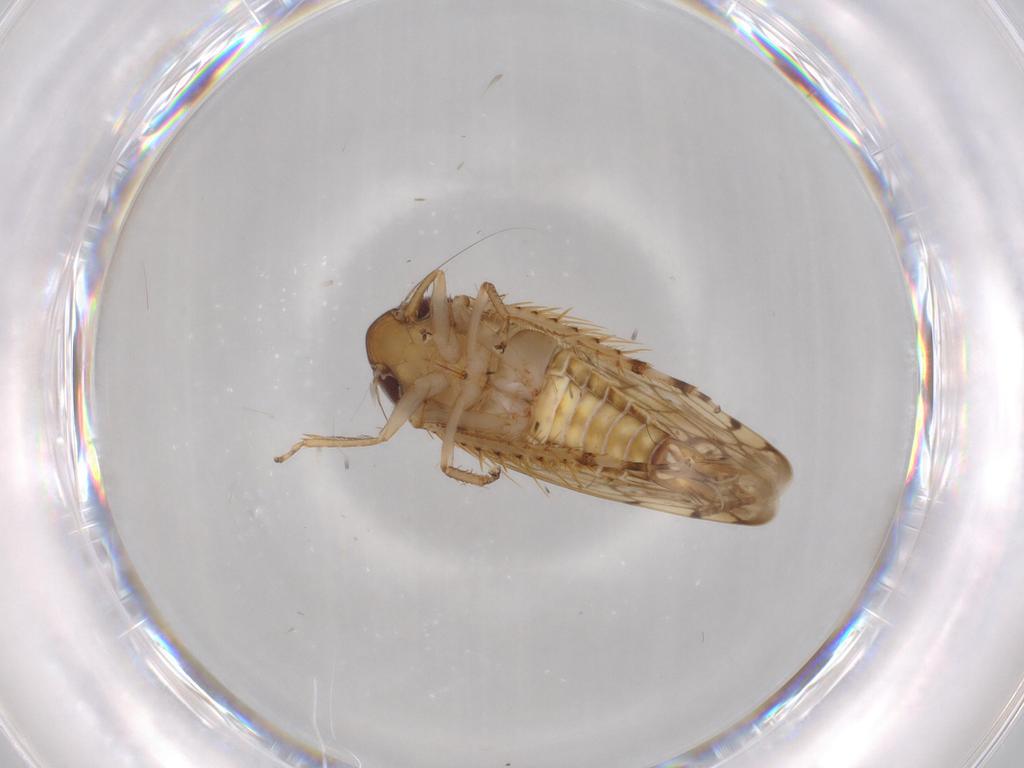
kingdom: Animalia
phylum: Arthropoda
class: Insecta
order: Hemiptera
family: Cicadellidae
